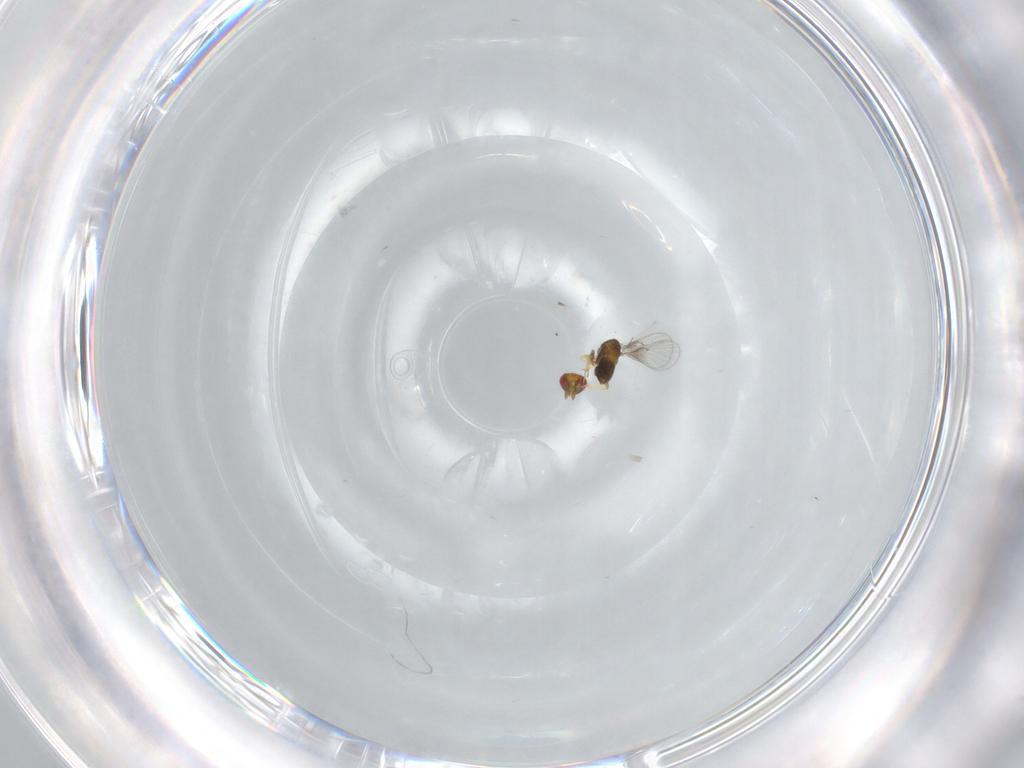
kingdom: Animalia
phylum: Arthropoda
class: Insecta
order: Hymenoptera
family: Trichogrammatidae
